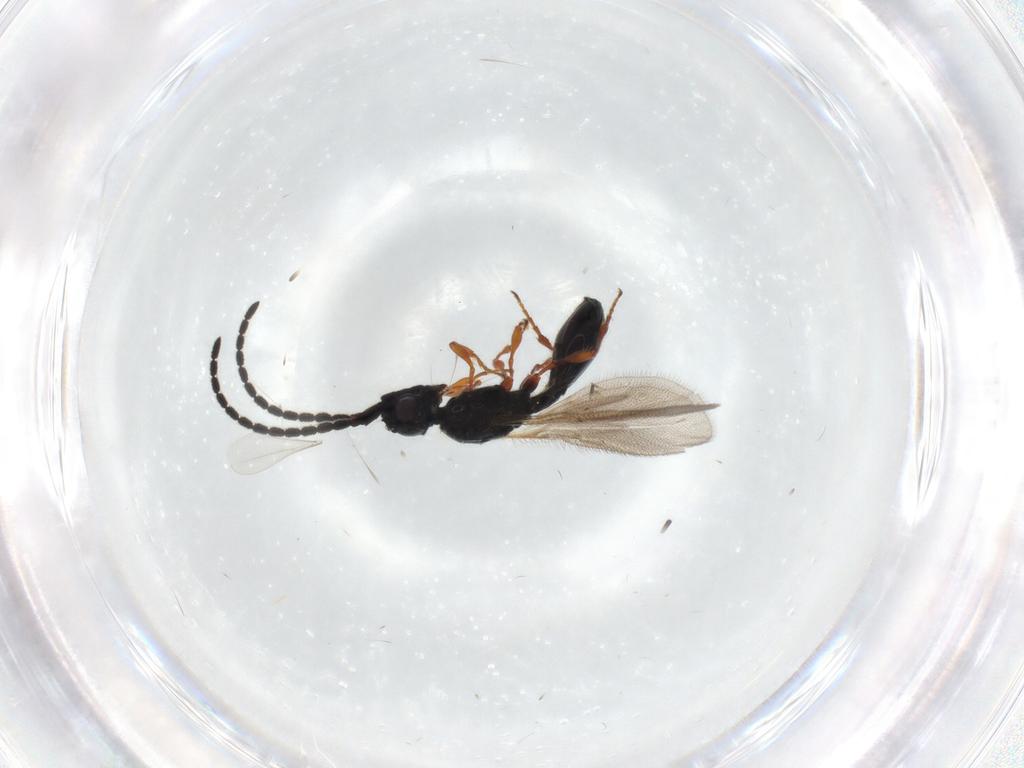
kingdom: Animalia
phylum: Arthropoda
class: Insecta
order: Hymenoptera
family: Diapriidae
